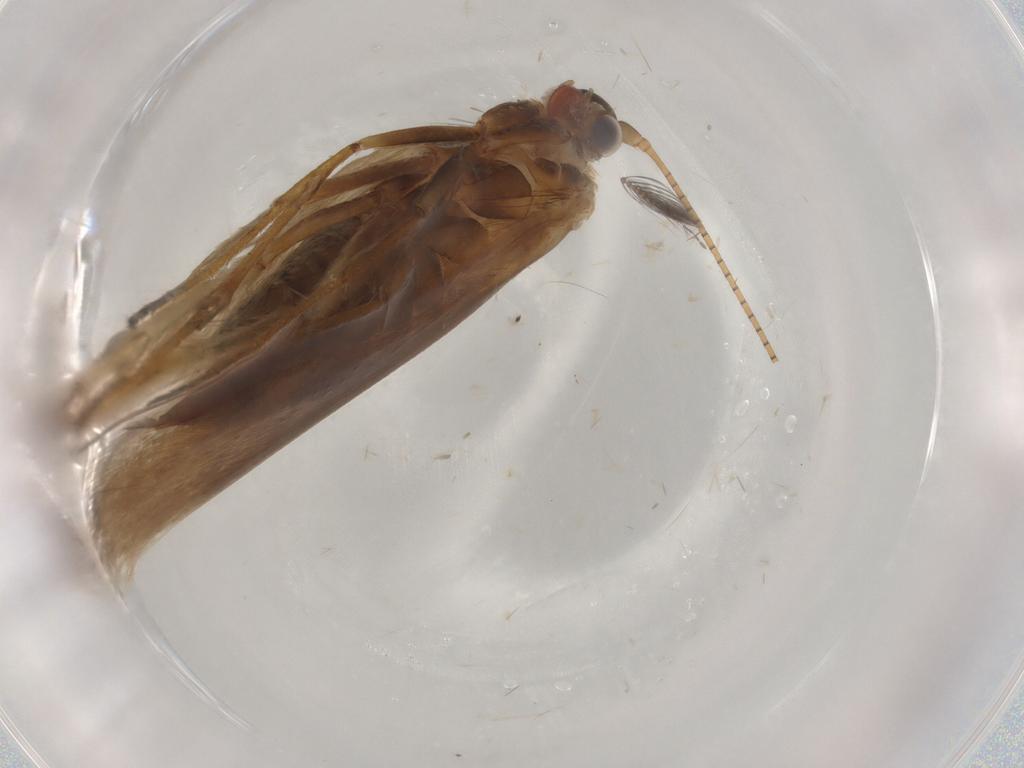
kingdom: Animalia
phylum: Arthropoda
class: Insecta
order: Lepidoptera
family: Adelidae
